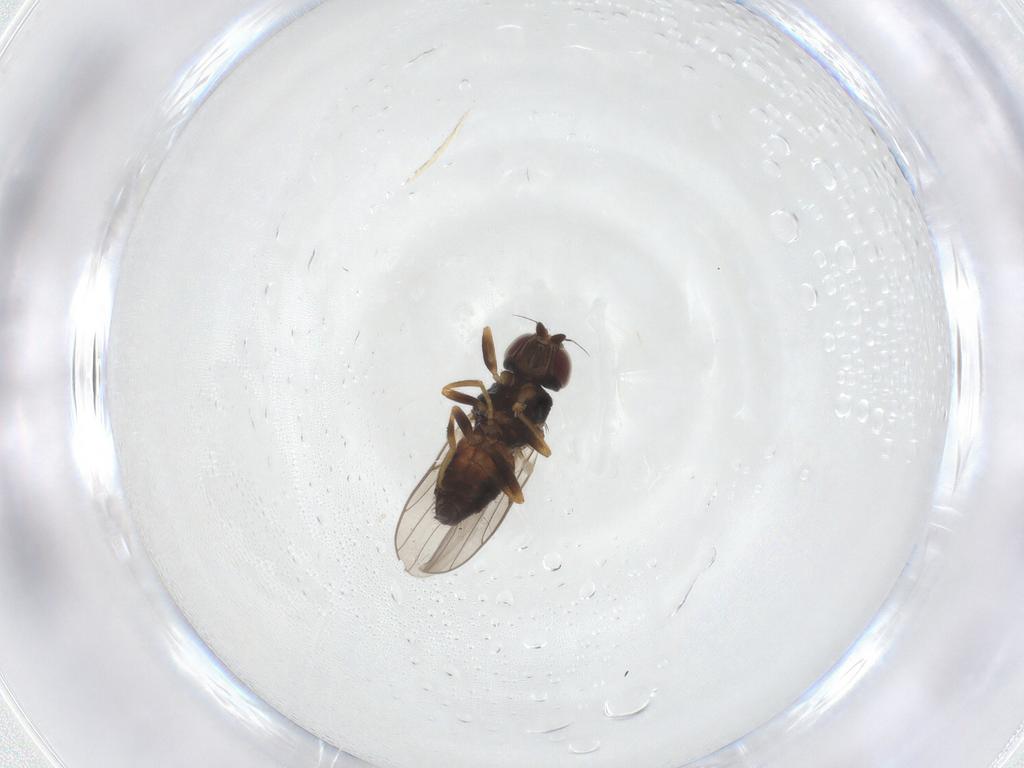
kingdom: Animalia
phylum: Arthropoda
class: Insecta
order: Diptera
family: Chloropidae
